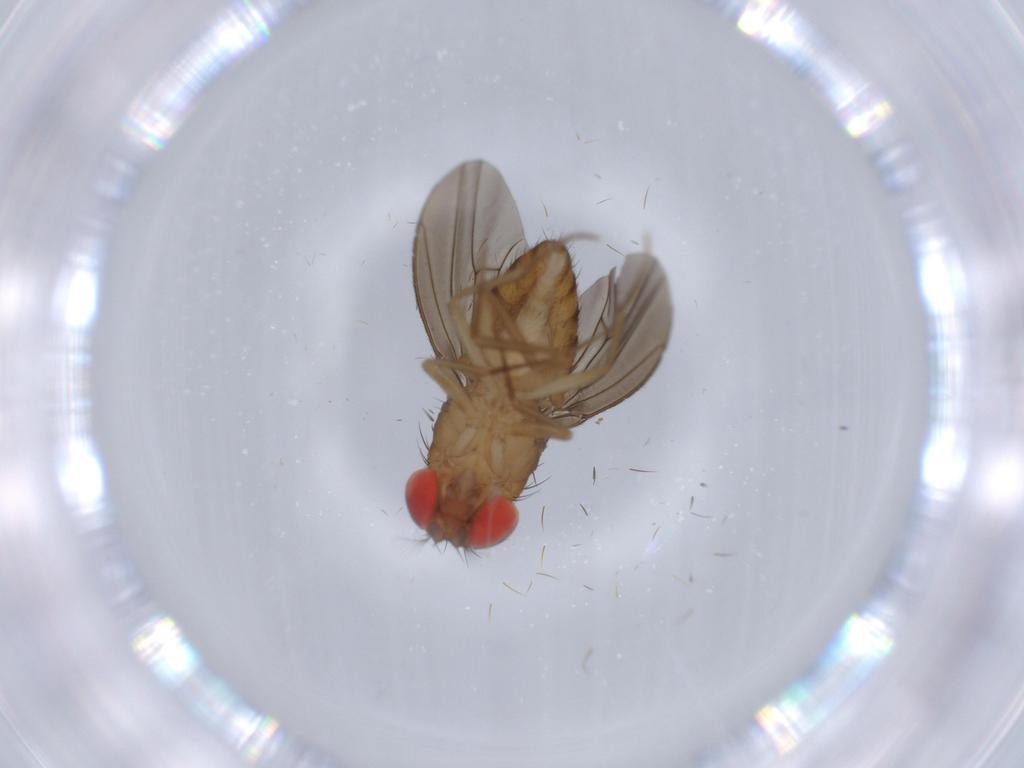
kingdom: Animalia
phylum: Arthropoda
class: Insecta
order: Diptera
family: Drosophilidae
